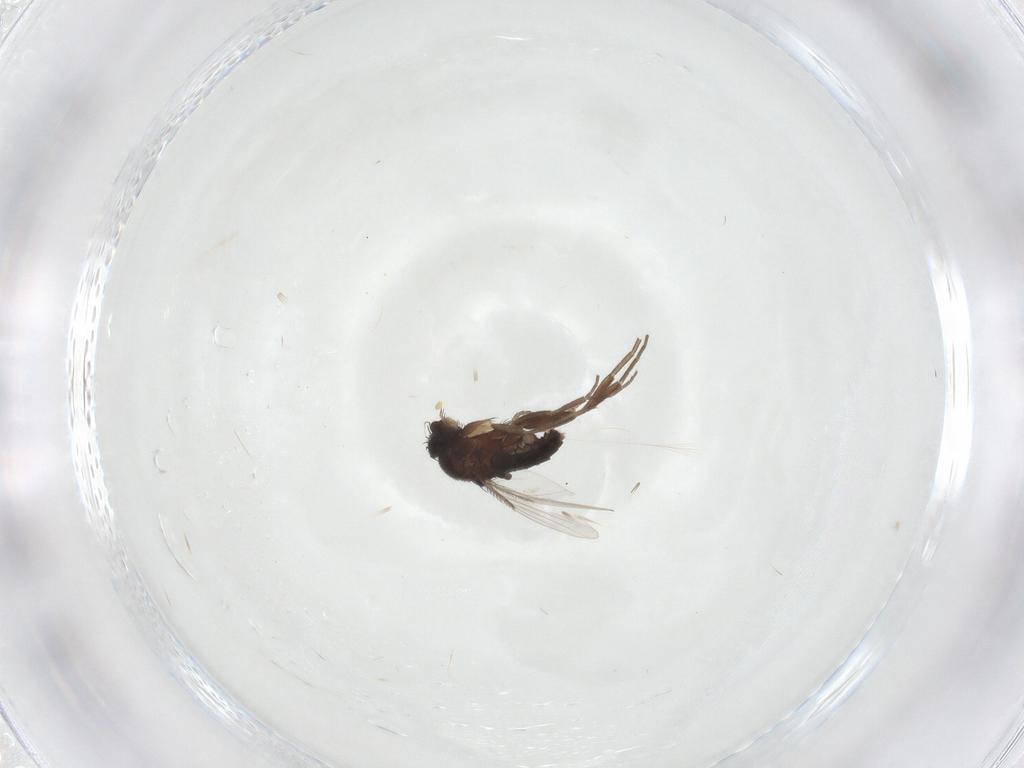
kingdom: Animalia
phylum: Arthropoda
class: Insecta
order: Diptera
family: Phoridae
